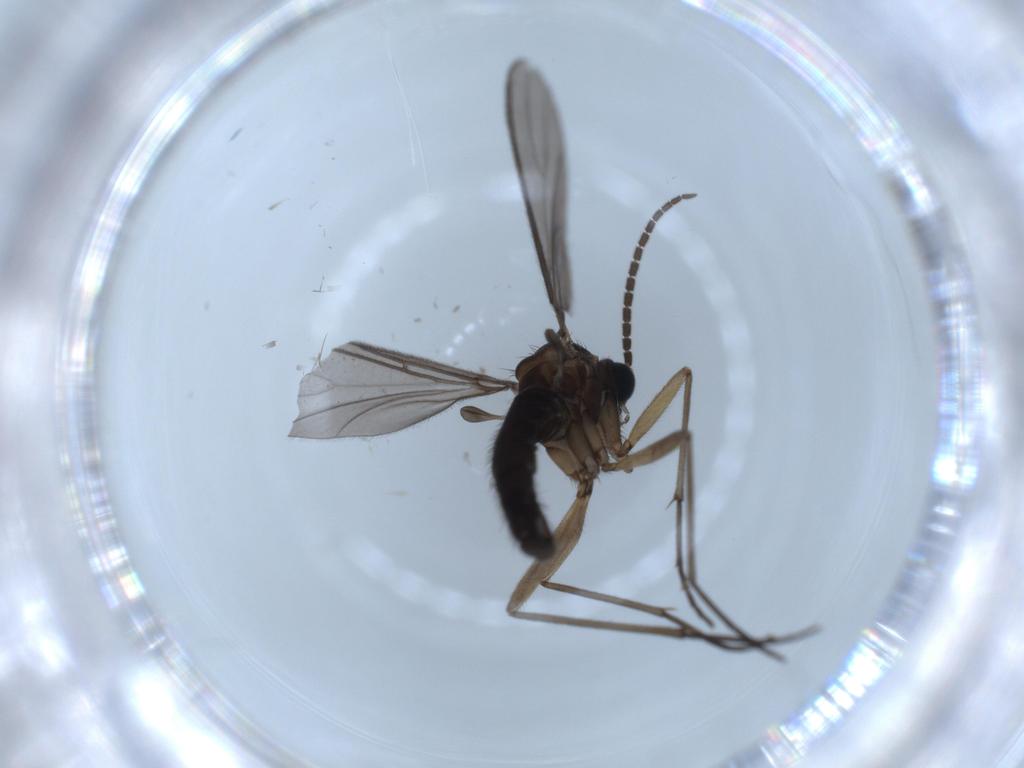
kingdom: Animalia
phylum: Arthropoda
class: Insecta
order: Diptera
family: Sciaridae
